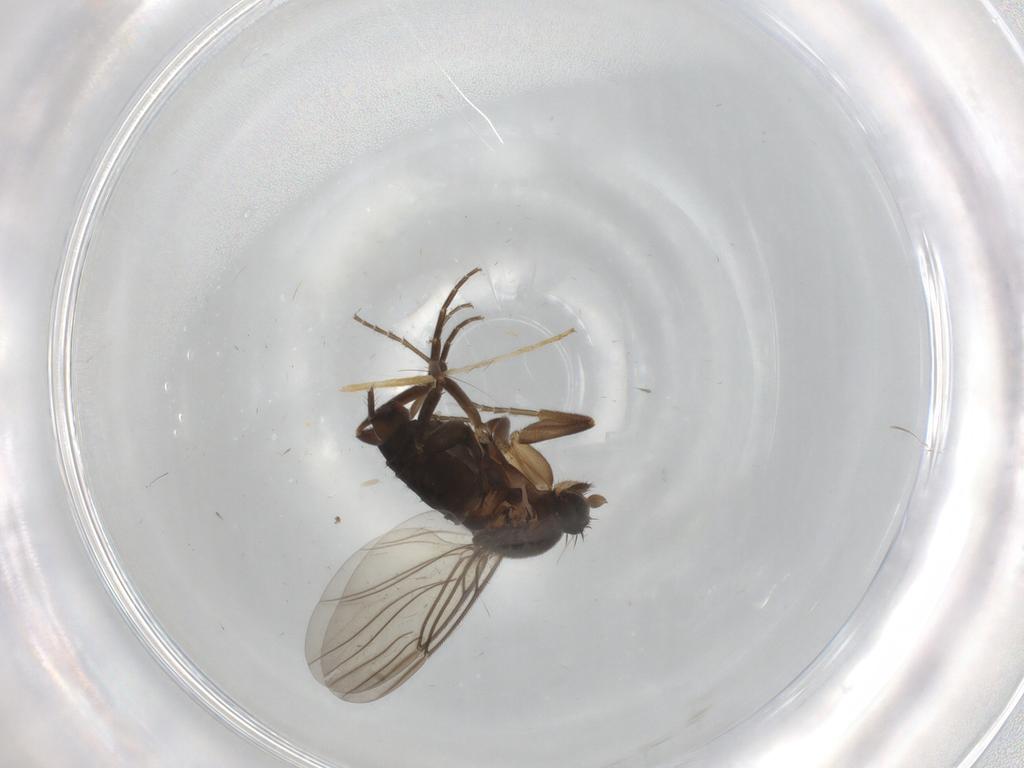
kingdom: Animalia
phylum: Arthropoda
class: Insecta
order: Diptera
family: Chironomidae
